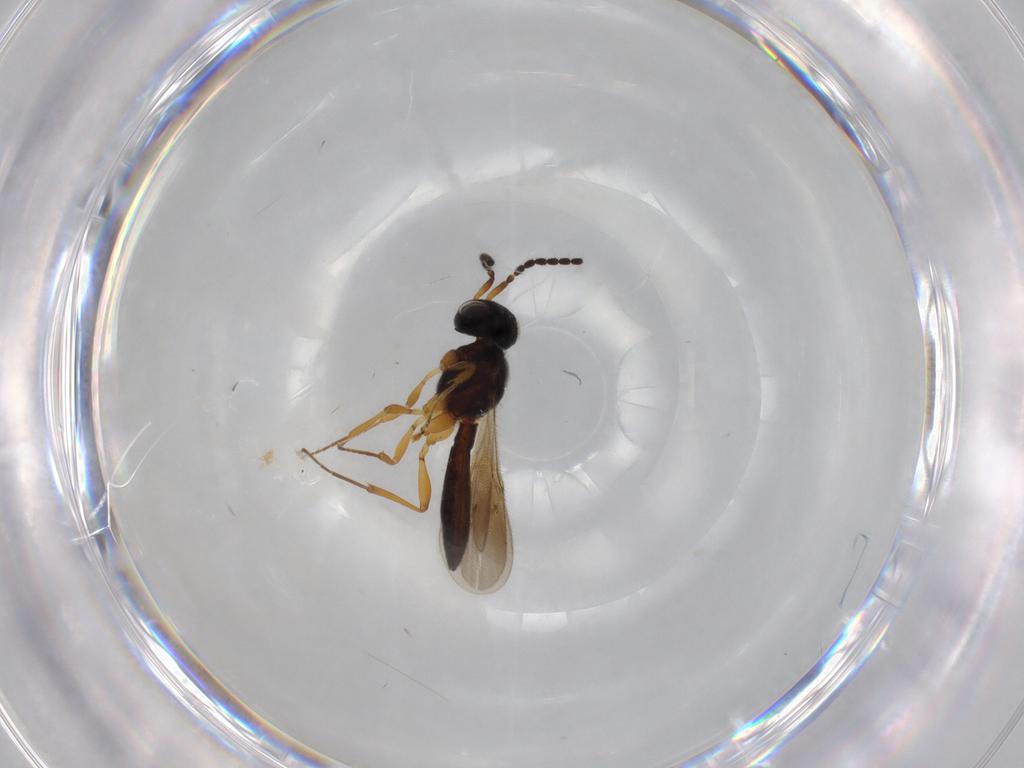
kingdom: Animalia
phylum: Arthropoda
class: Insecta
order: Hymenoptera
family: Scelionidae
